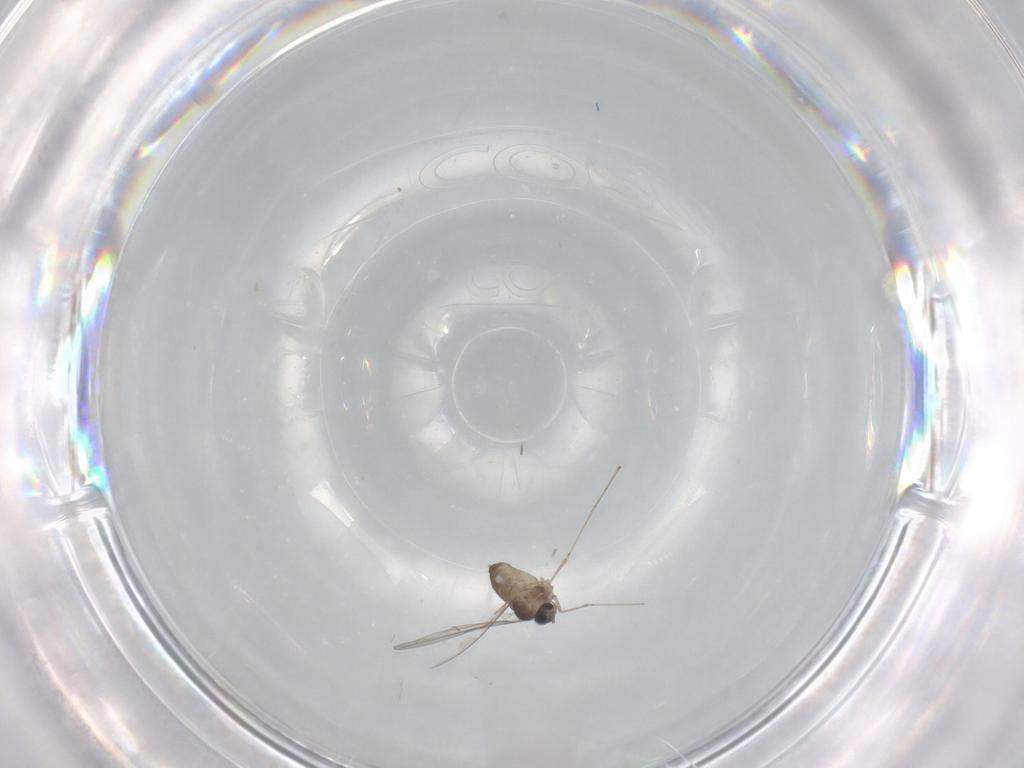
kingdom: Animalia
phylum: Arthropoda
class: Insecta
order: Diptera
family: Cecidomyiidae
